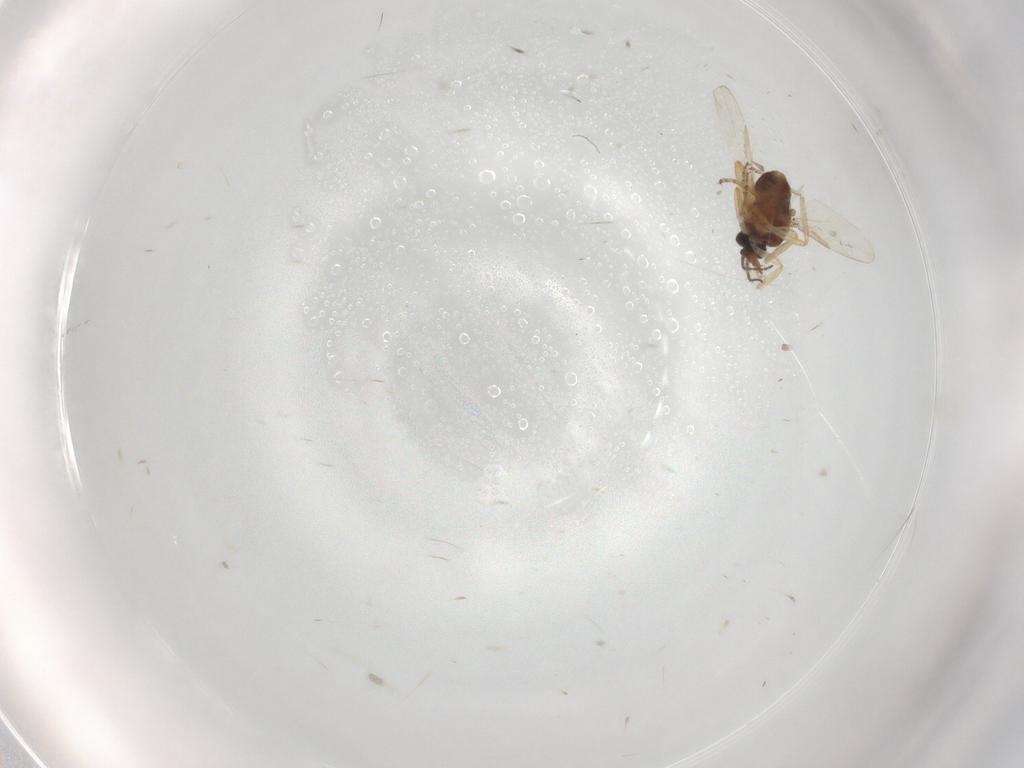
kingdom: Animalia
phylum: Arthropoda
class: Insecta
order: Diptera
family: Ceratopogonidae
